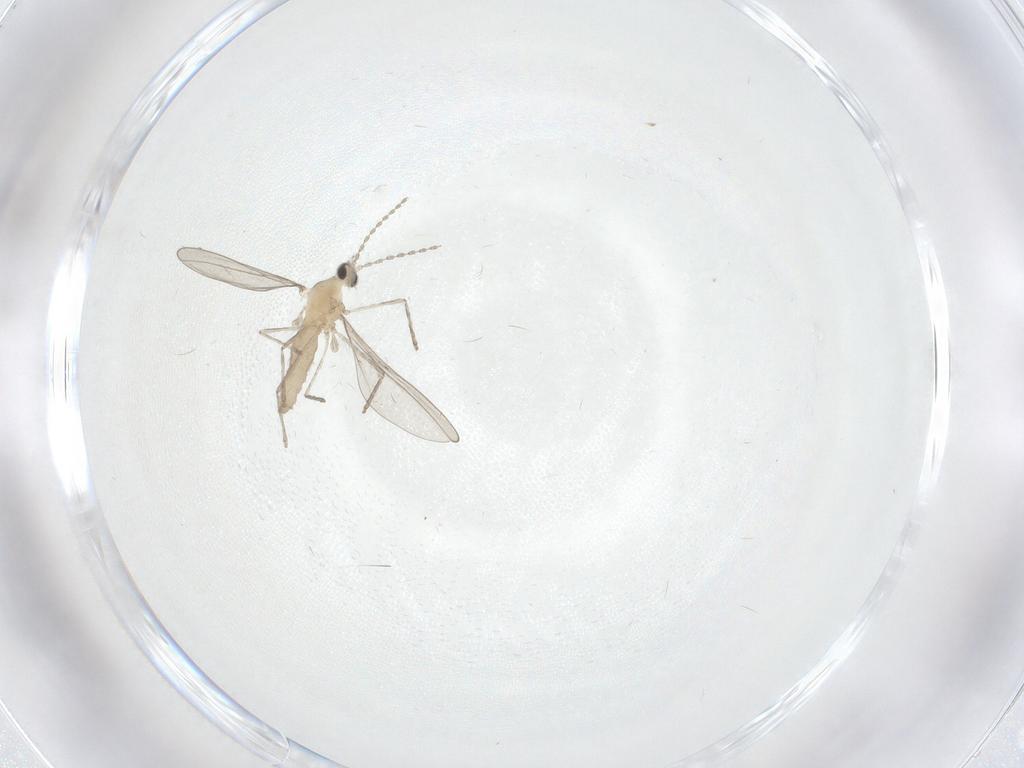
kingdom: Animalia
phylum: Arthropoda
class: Insecta
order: Diptera
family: Cecidomyiidae
